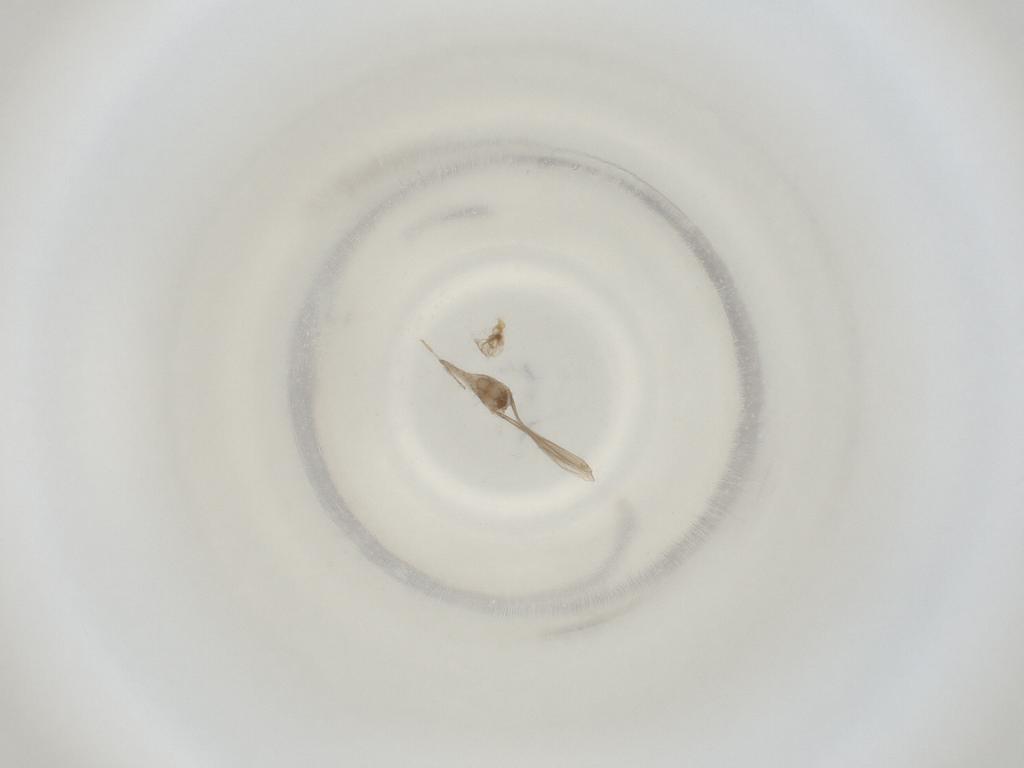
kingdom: Animalia
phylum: Arthropoda
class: Insecta
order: Diptera
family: Cecidomyiidae
